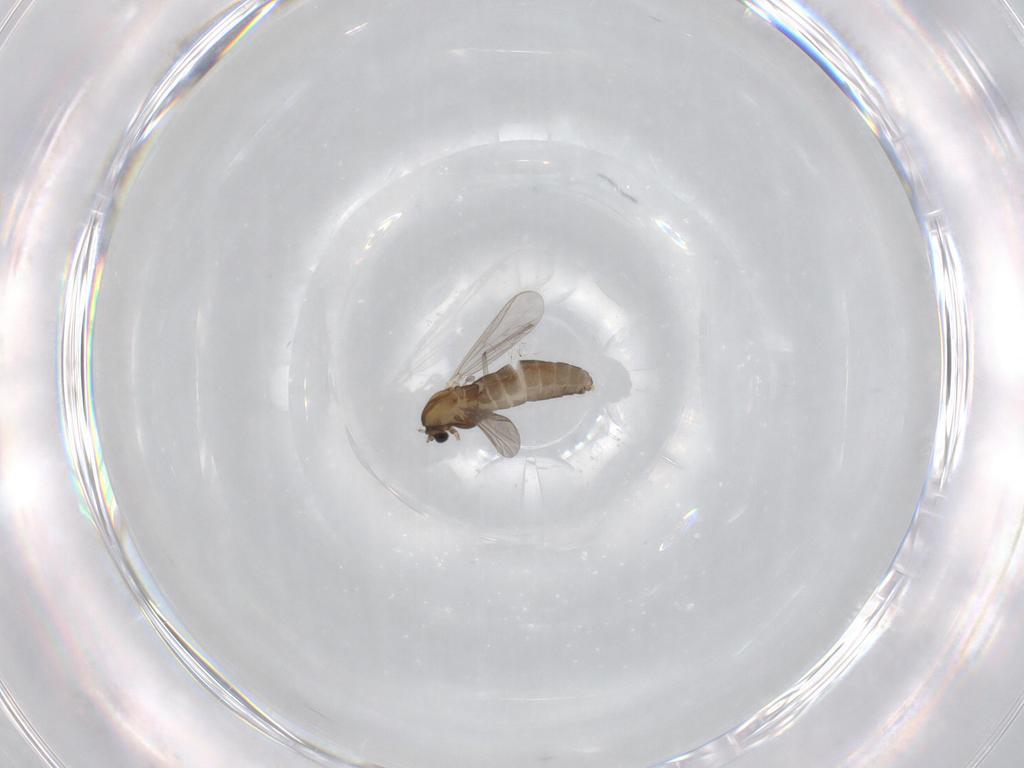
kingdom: Animalia
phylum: Arthropoda
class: Insecta
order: Diptera
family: Chironomidae
